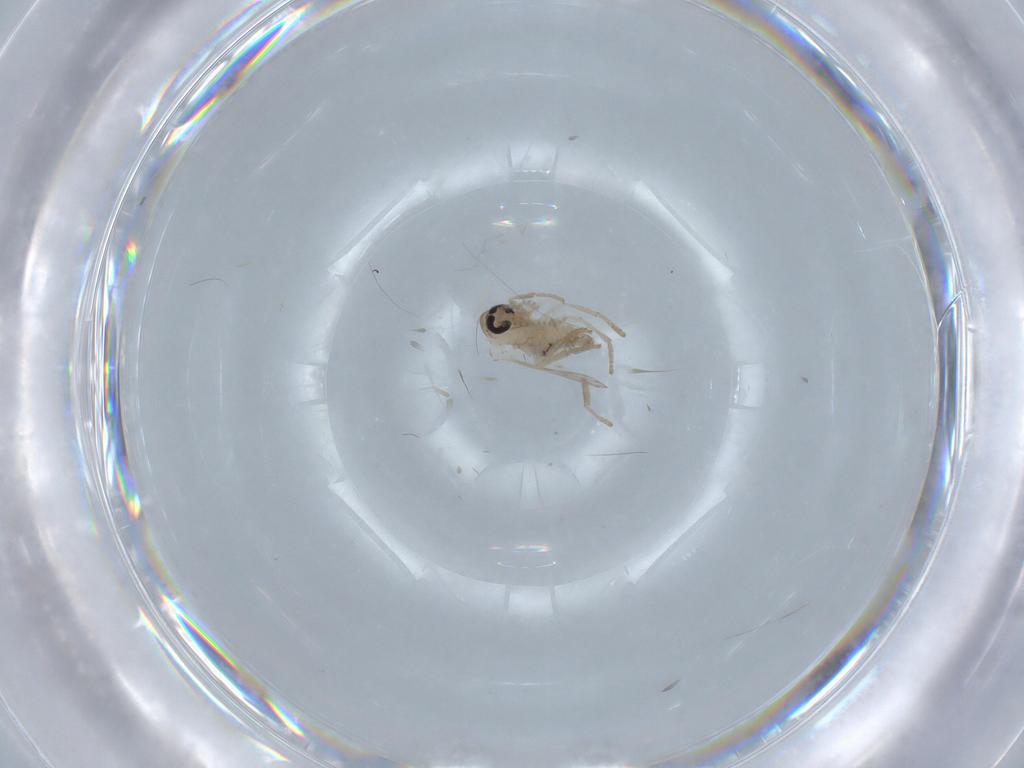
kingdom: Animalia
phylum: Arthropoda
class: Insecta
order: Diptera
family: Psychodidae
